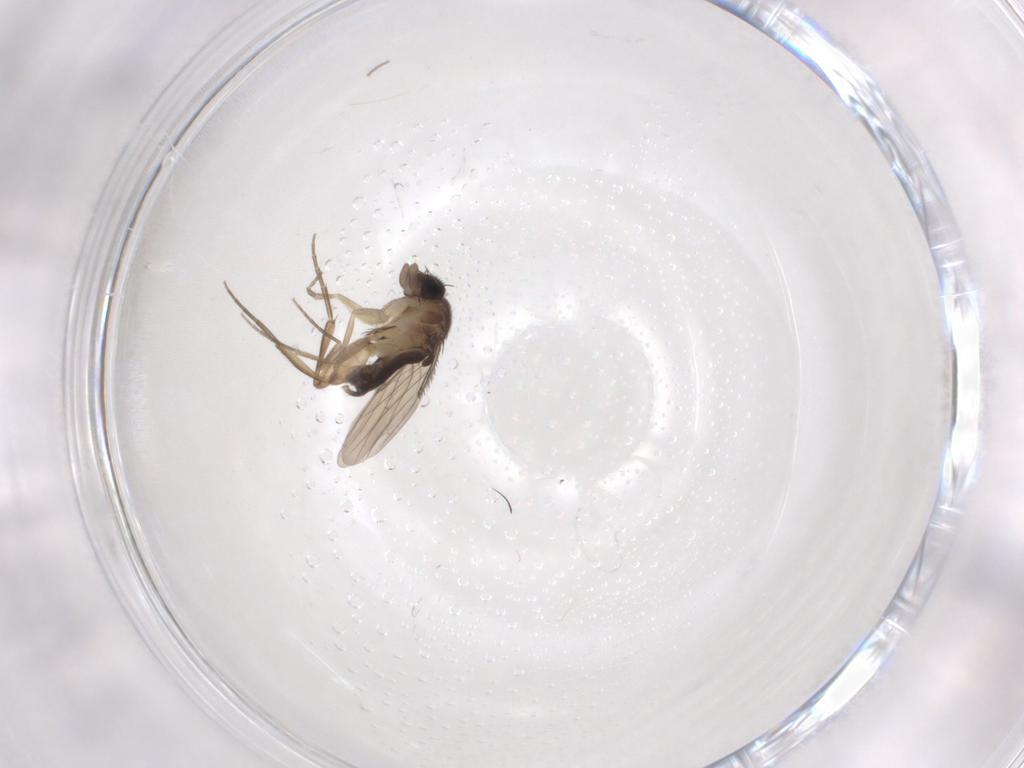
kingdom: Animalia
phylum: Arthropoda
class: Insecta
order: Diptera
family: Phoridae
